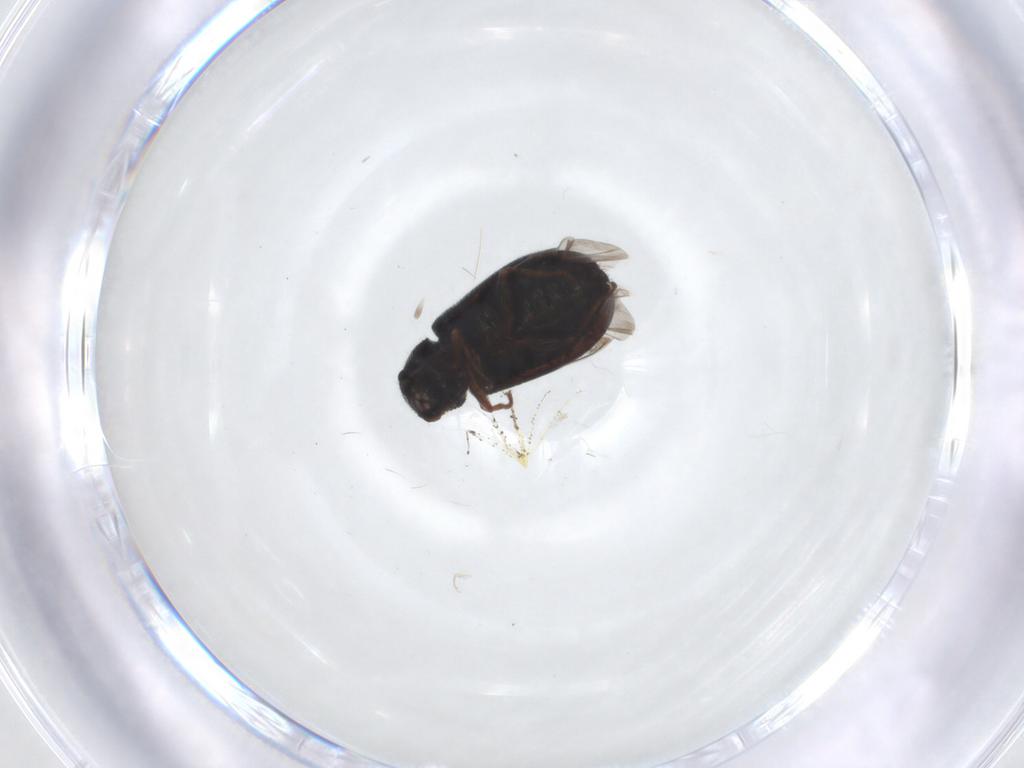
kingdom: Animalia
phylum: Arthropoda
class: Insecta
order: Coleoptera
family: Melyridae
